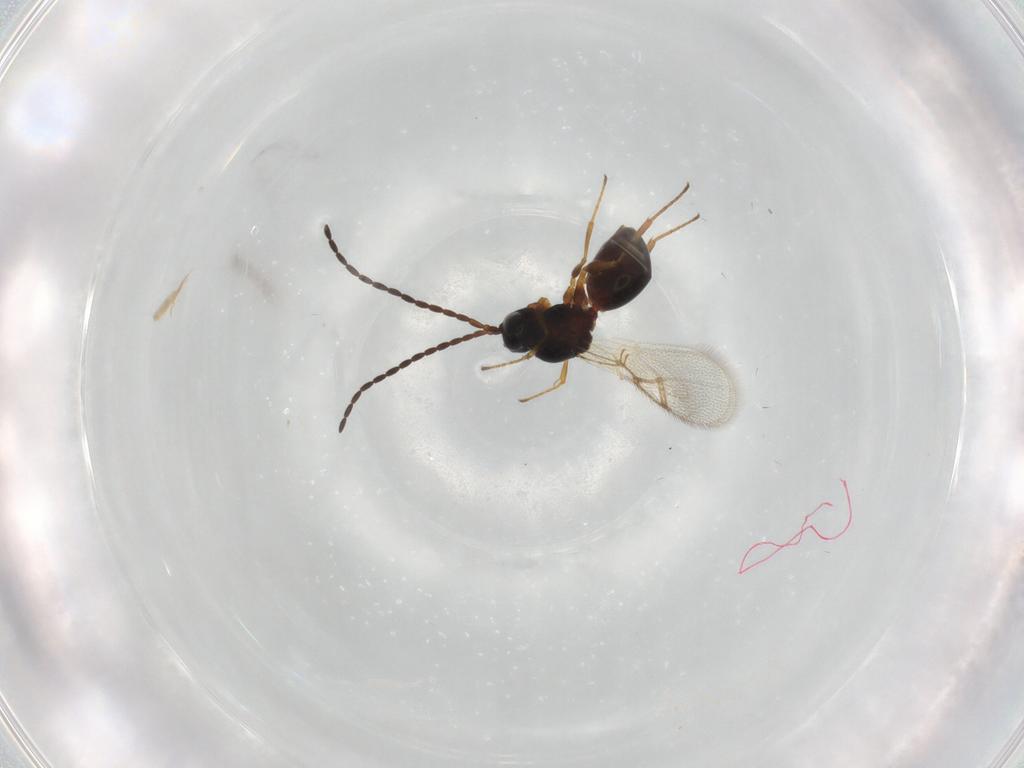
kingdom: Animalia
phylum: Arthropoda
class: Insecta
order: Hymenoptera
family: Figitidae
